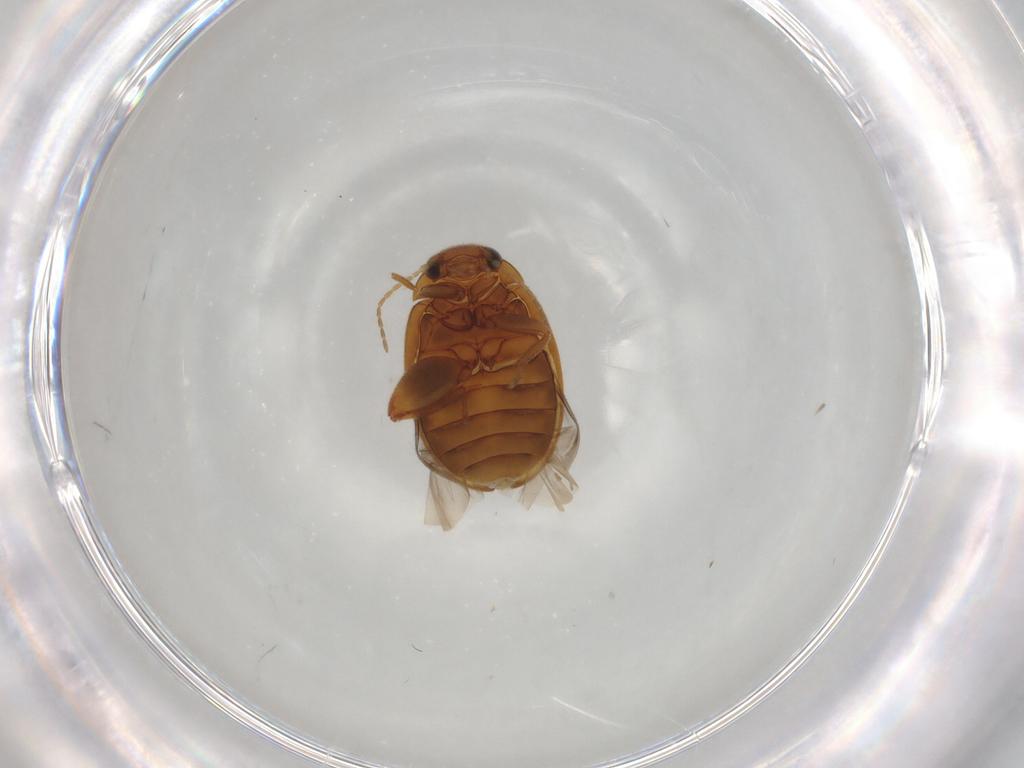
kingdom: Animalia
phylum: Arthropoda
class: Insecta
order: Coleoptera
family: Scirtidae
